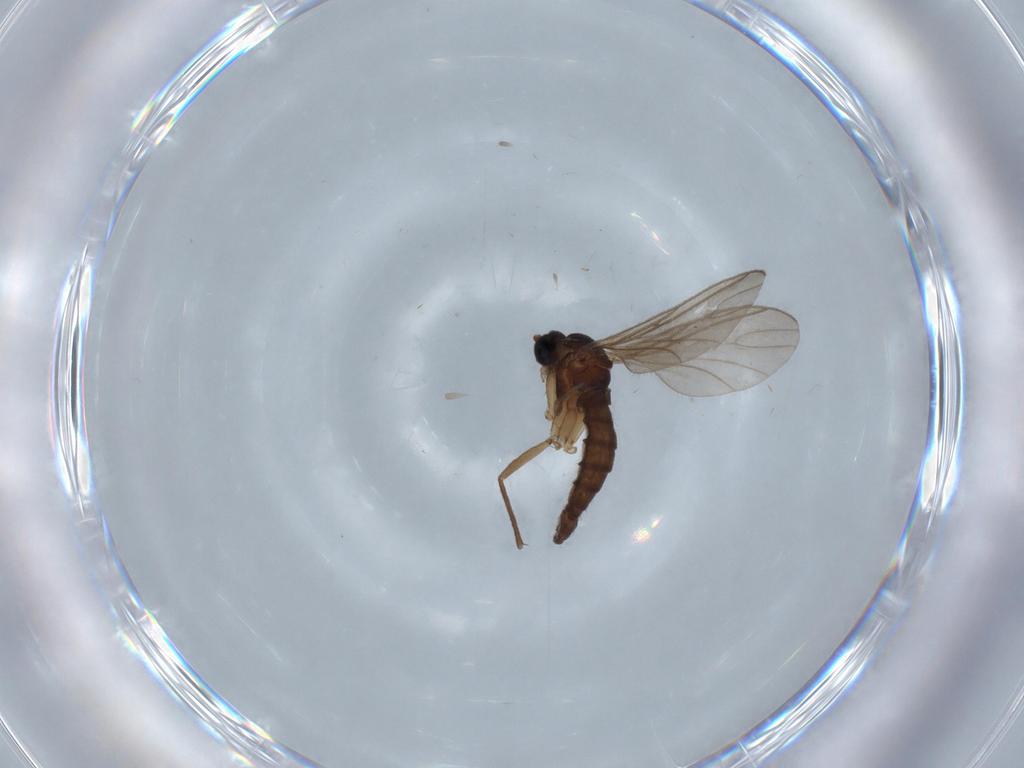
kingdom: Animalia
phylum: Arthropoda
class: Insecta
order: Diptera
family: Sciaridae
